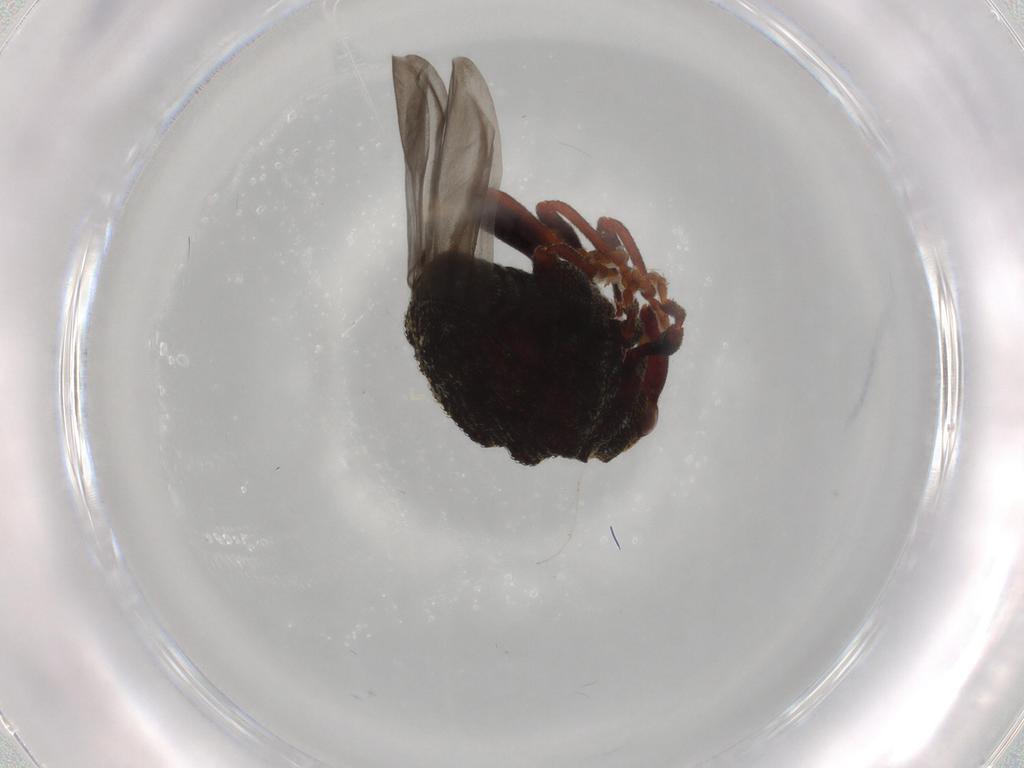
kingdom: Animalia
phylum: Arthropoda
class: Insecta
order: Coleoptera
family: Curculionidae
